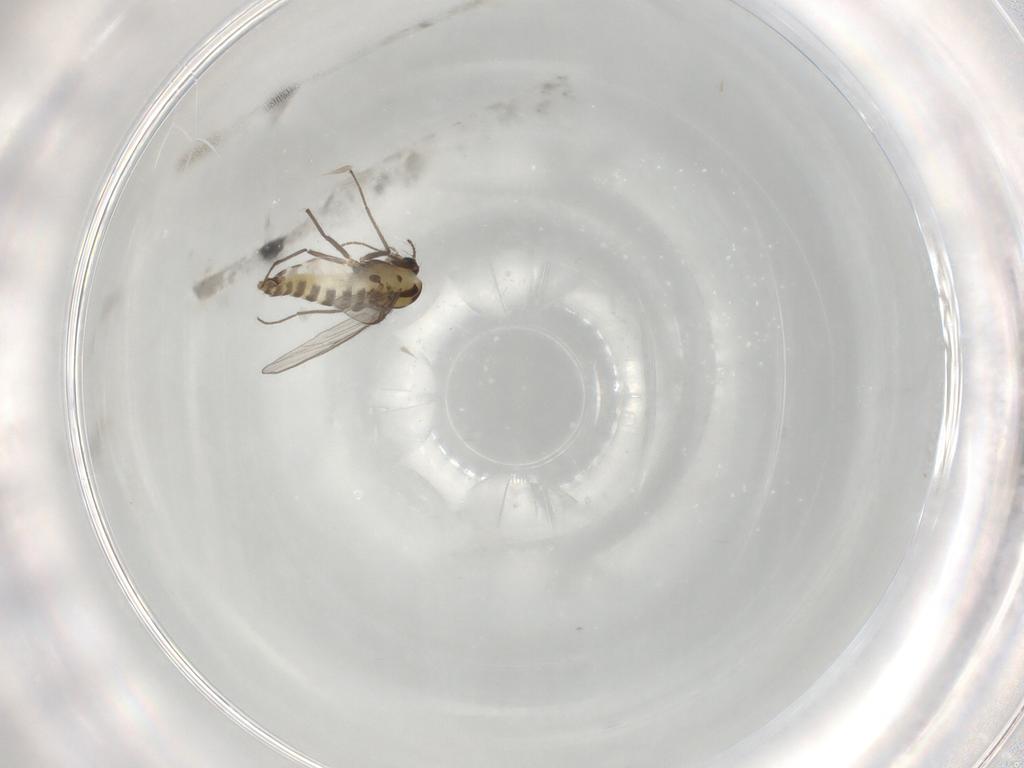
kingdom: Animalia
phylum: Arthropoda
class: Insecta
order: Diptera
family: Chironomidae
